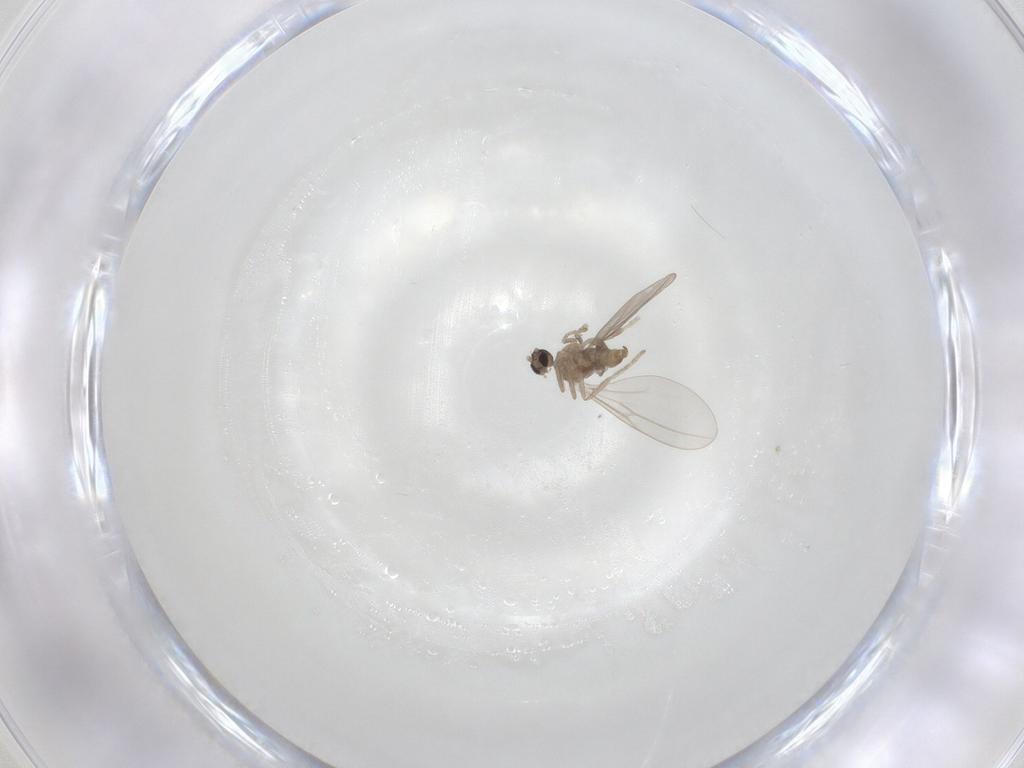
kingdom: Animalia
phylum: Arthropoda
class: Insecta
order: Diptera
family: Cecidomyiidae
